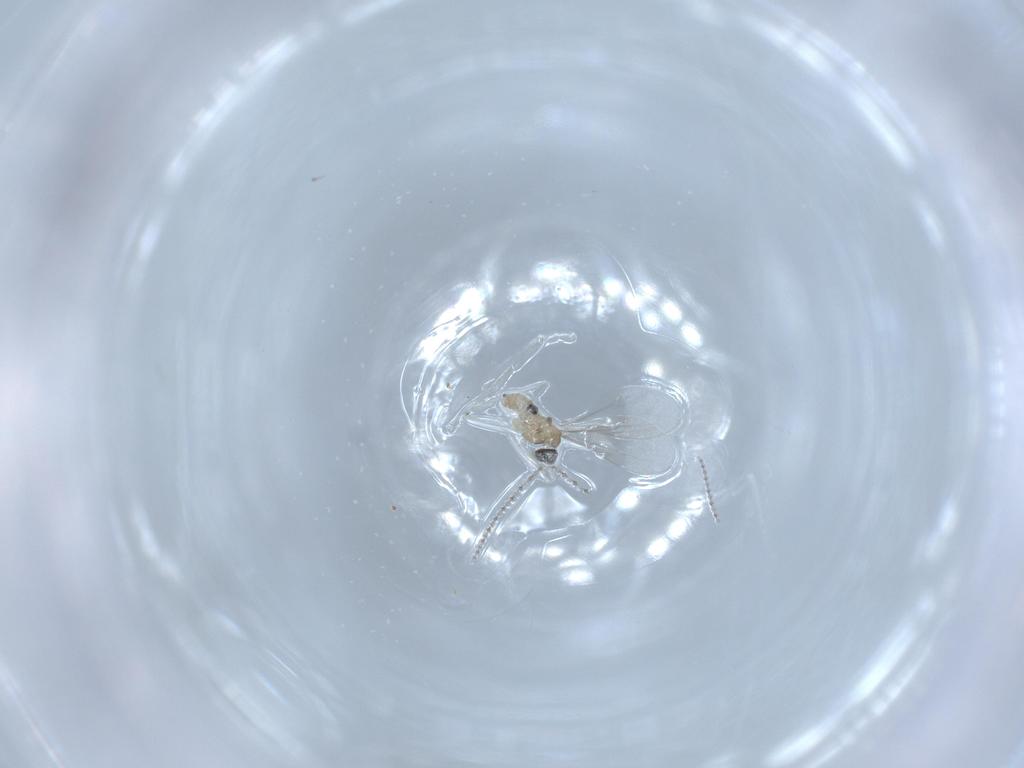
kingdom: Animalia
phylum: Arthropoda
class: Insecta
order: Diptera
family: Cecidomyiidae
